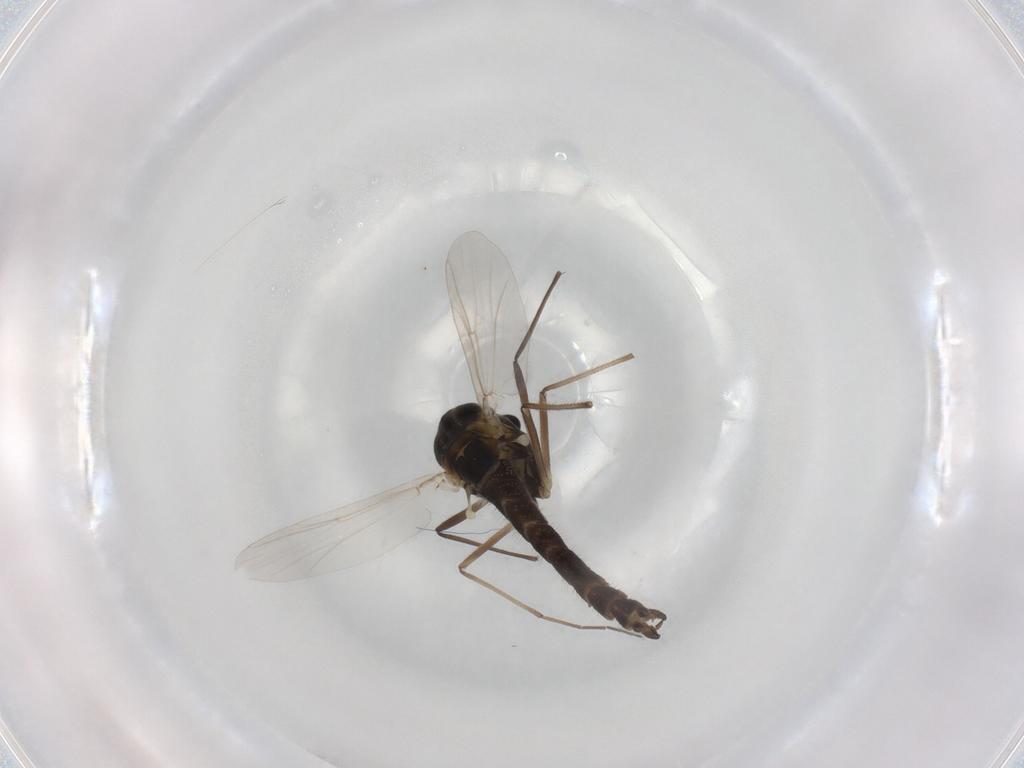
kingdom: Animalia
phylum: Arthropoda
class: Insecta
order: Diptera
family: Chironomidae
